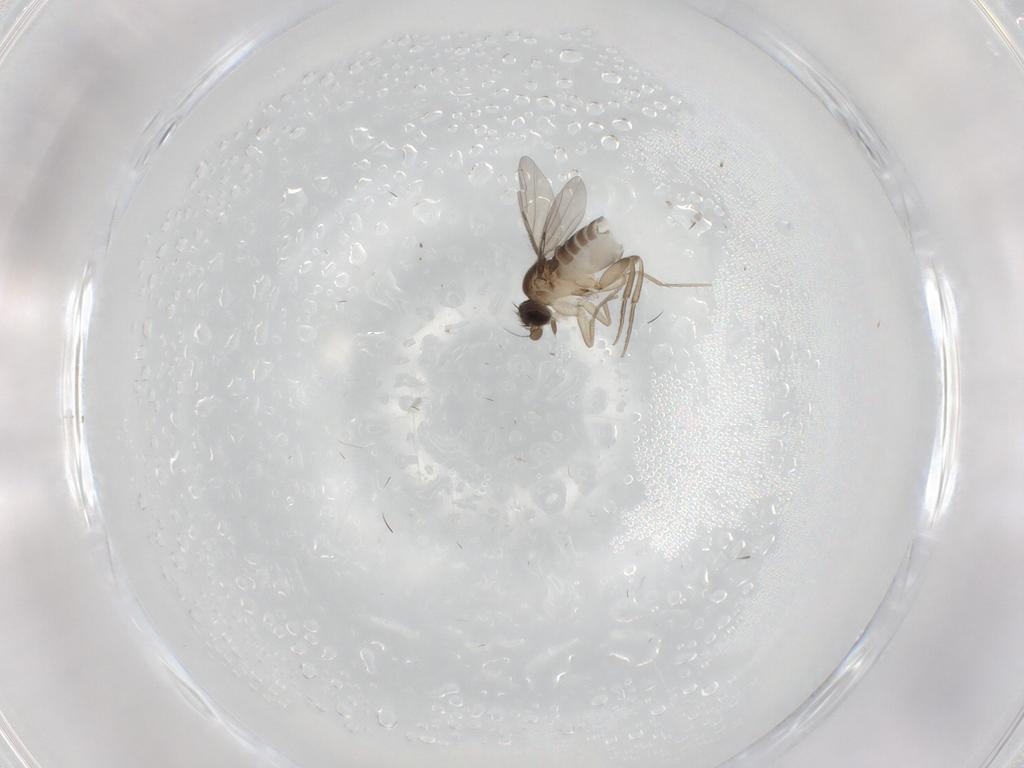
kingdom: Animalia
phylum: Arthropoda
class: Insecta
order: Diptera
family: Phoridae
